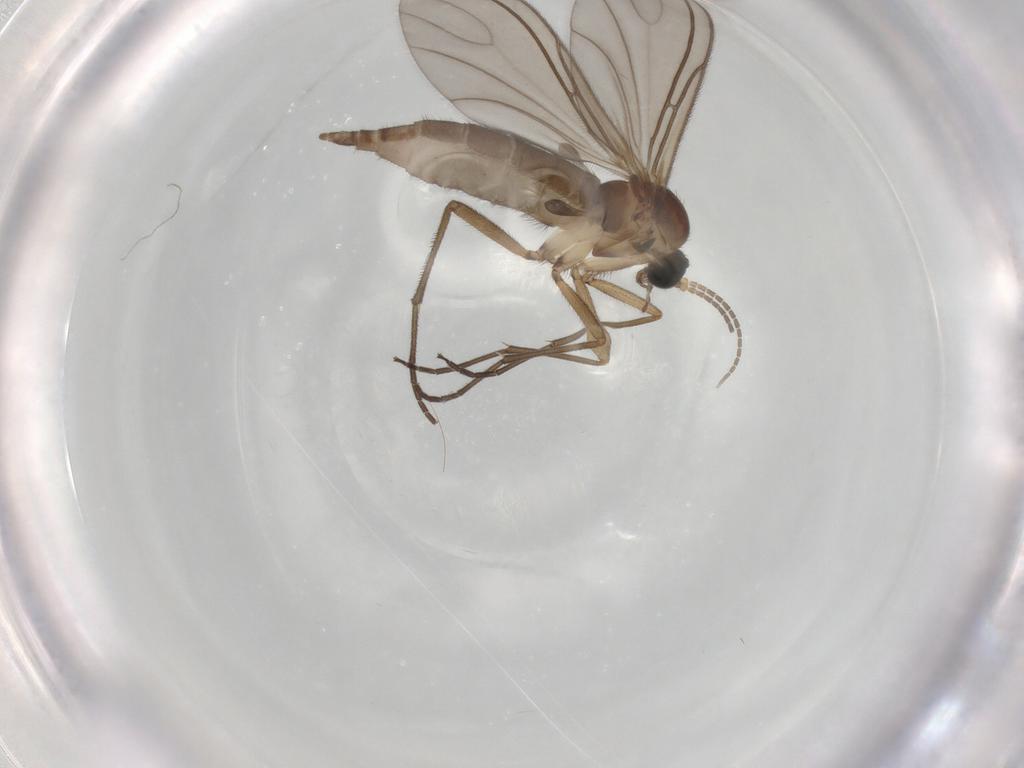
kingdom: Animalia
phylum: Arthropoda
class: Insecta
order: Diptera
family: Sciaridae
